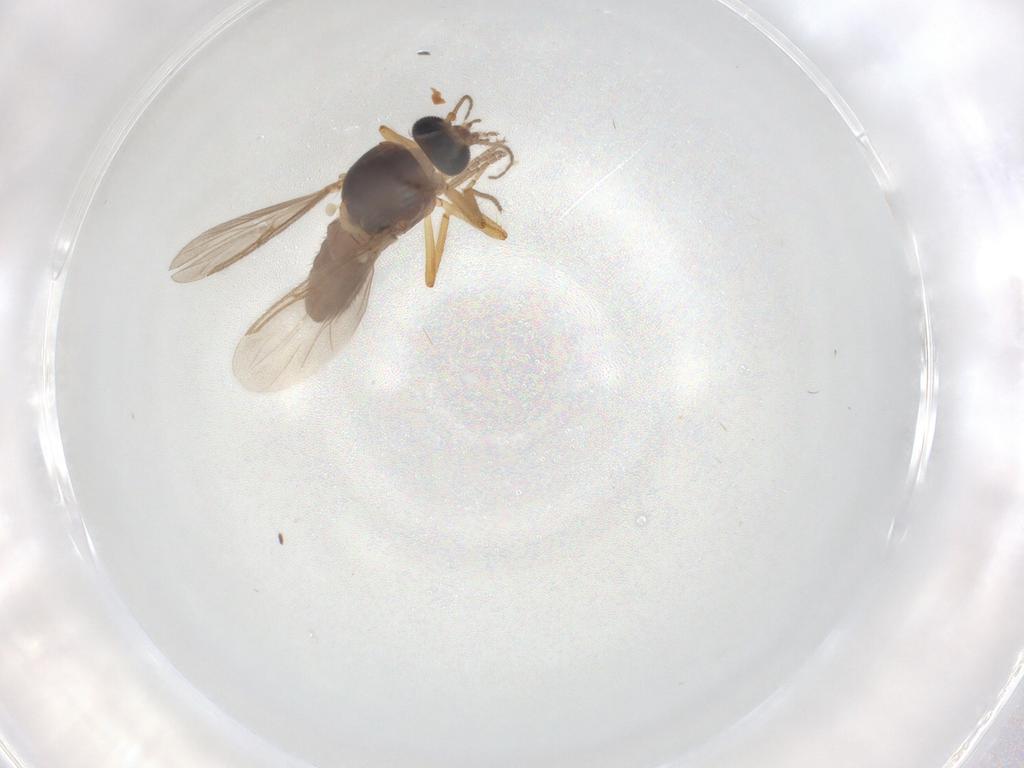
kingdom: Animalia
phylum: Arthropoda
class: Insecta
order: Diptera
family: Ceratopogonidae
